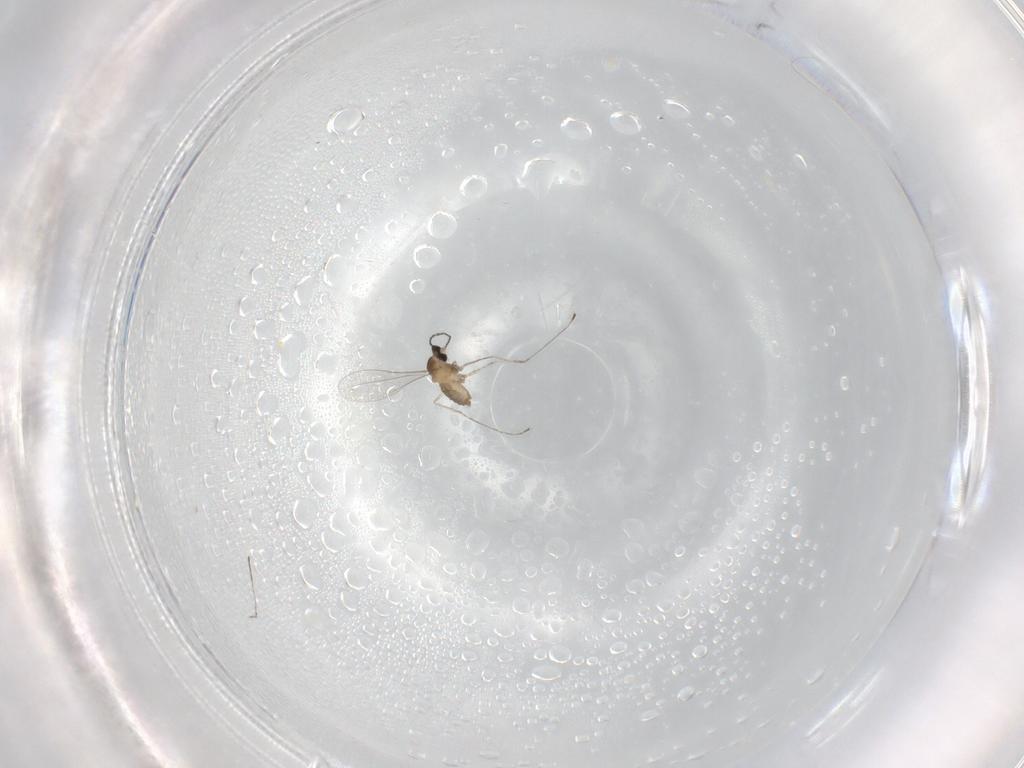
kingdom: Animalia
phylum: Arthropoda
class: Insecta
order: Diptera
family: Cecidomyiidae
